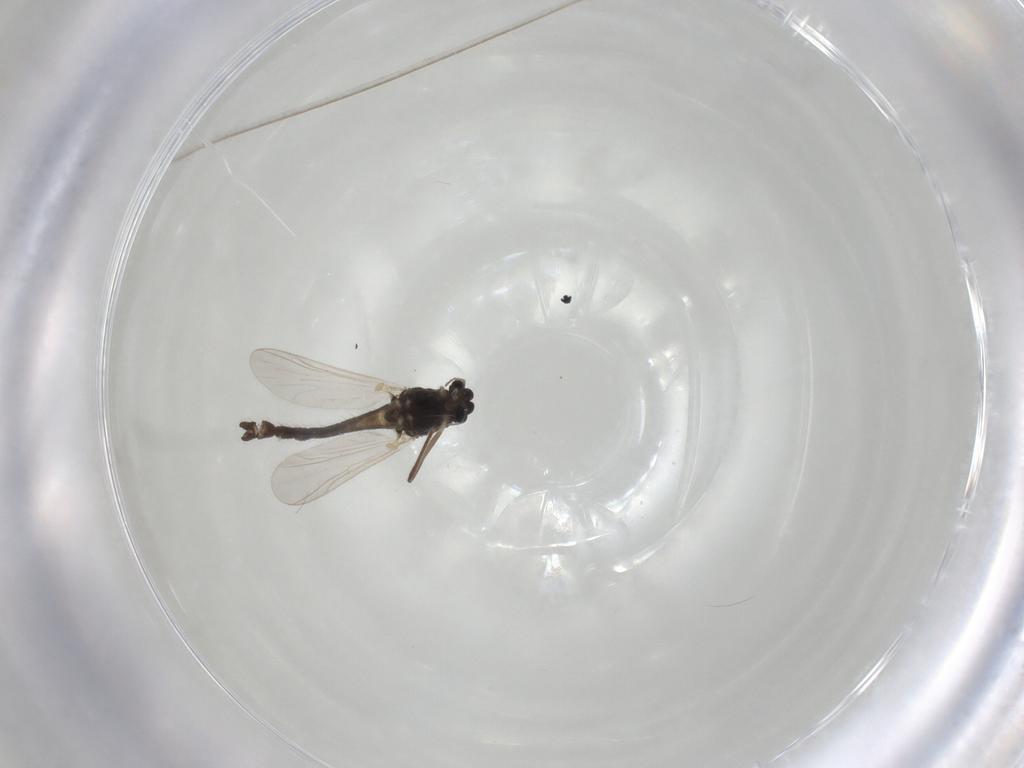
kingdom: Animalia
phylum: Arthropoda
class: Insecta
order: Diptera
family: Chironomidae
